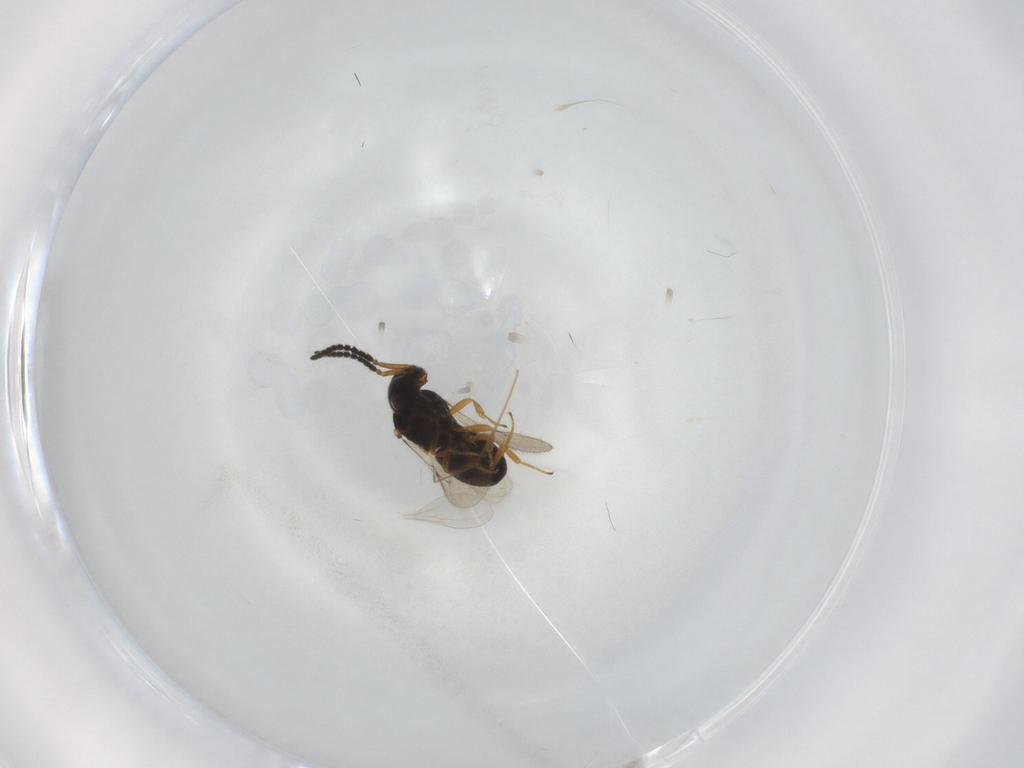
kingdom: Animalia
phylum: Arthropoda
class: Insecta
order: Hymenoptera
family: Scelionidae
